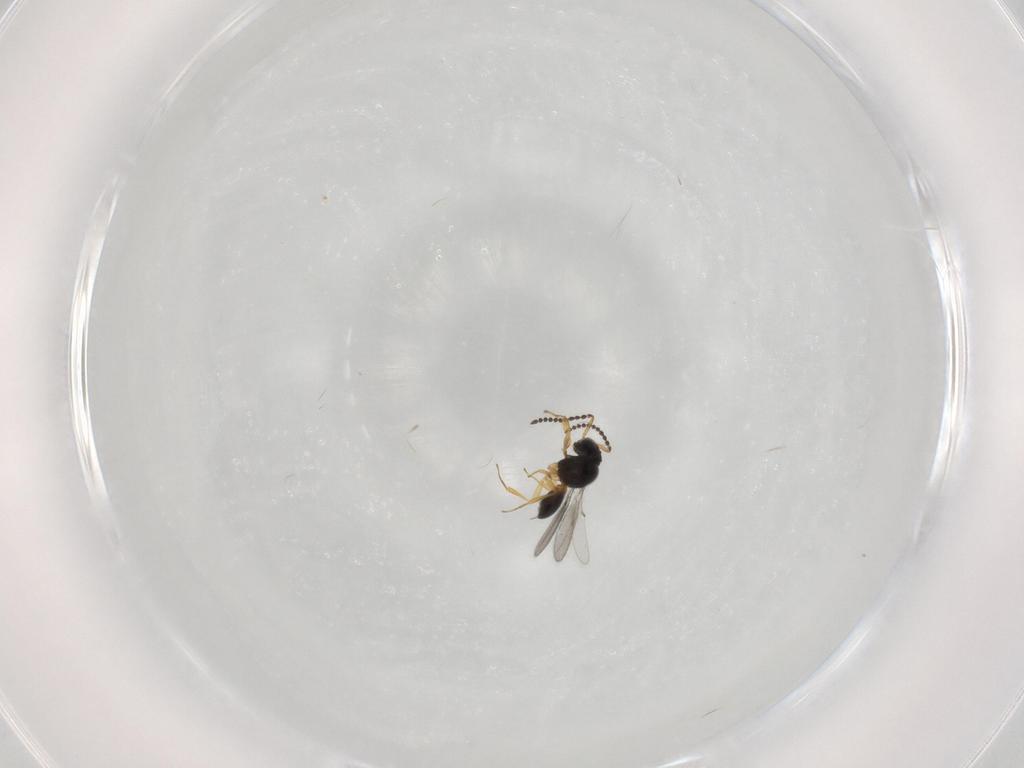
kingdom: Animalia
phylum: Arthropoda
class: Insecta
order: Hymenoptera
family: Scelionidae
